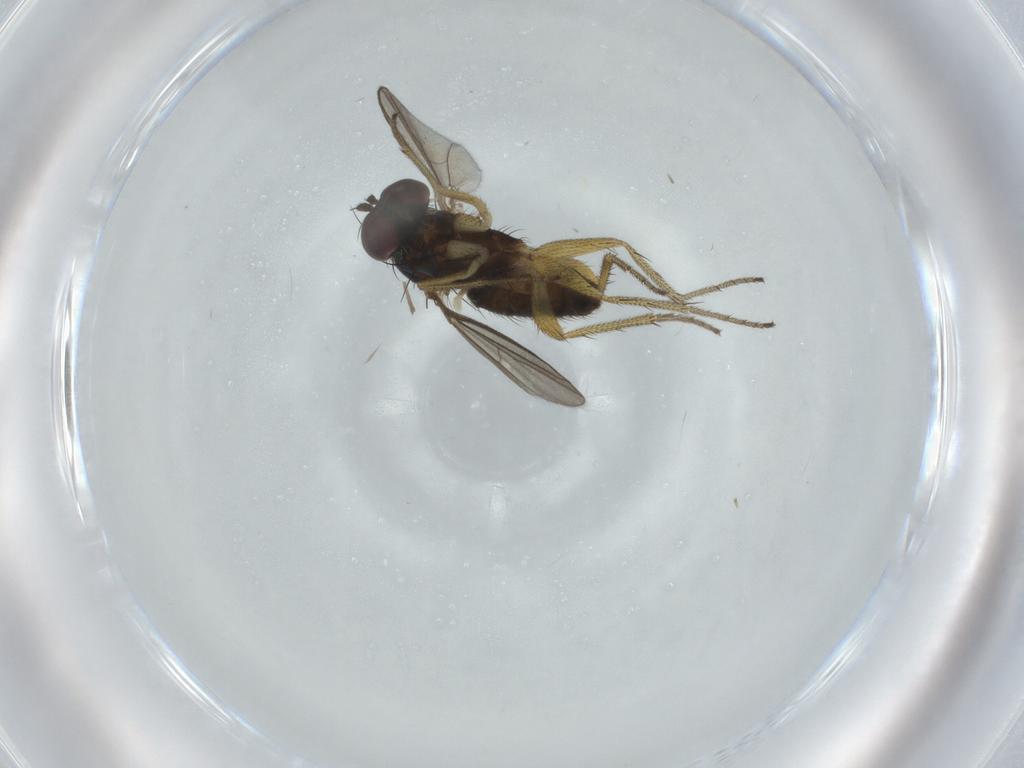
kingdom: Animalia
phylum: Arthropoda
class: Insecta
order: Diptera
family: Dolichopodidae
